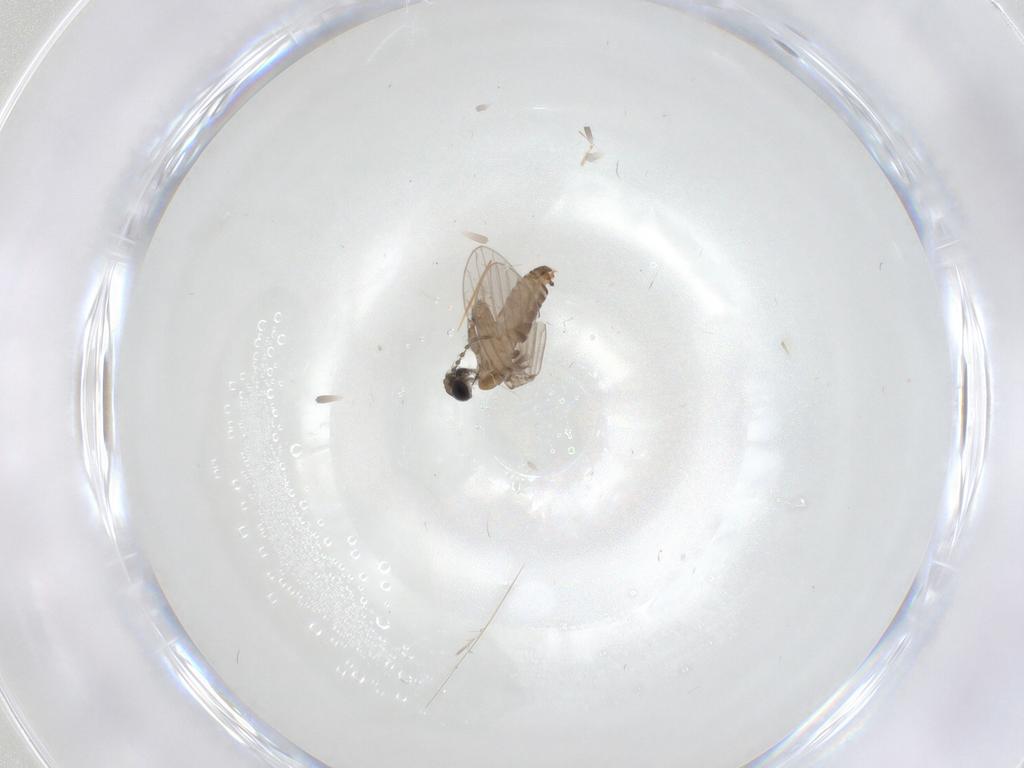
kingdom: Animalia
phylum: Arthropoda
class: Insecta
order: Diptera
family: Psychodidae
